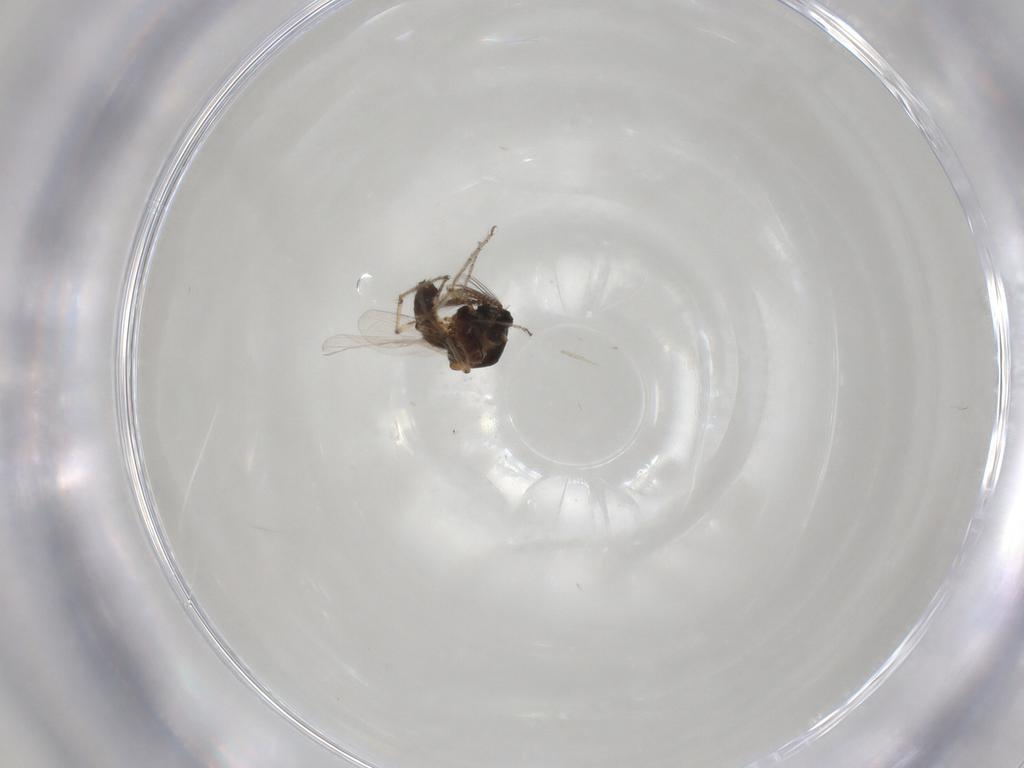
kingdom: Animalia
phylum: Arthropoda
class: Insecta
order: Diptera
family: Ceratopogonidae
